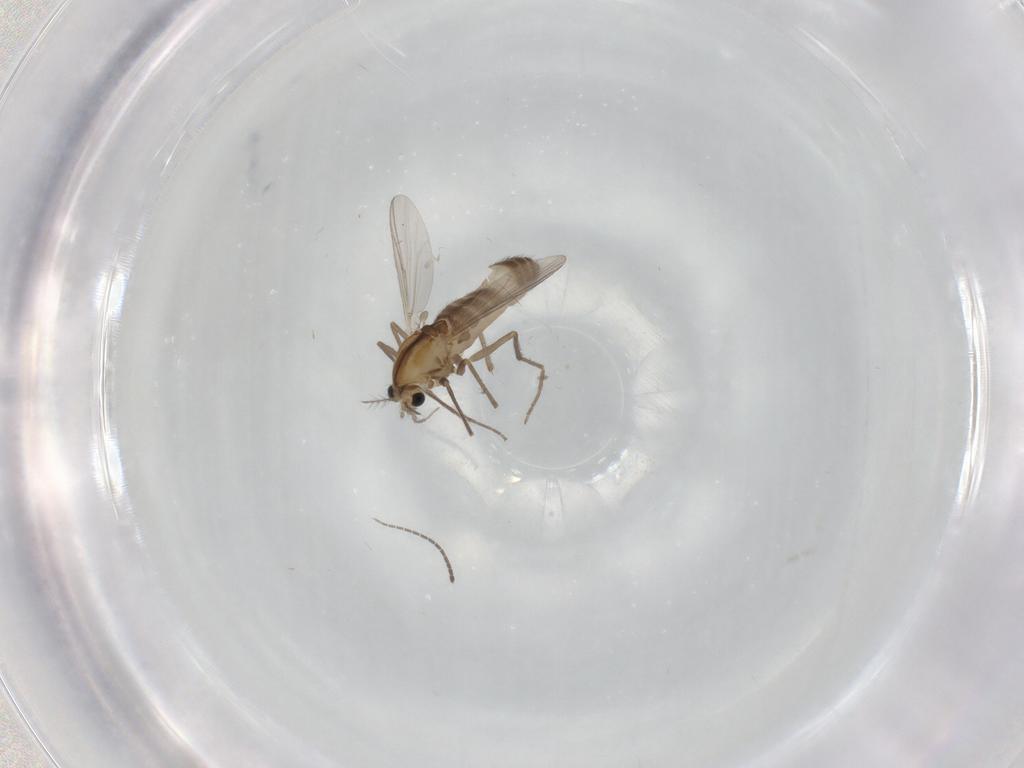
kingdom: Animalia
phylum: Arthropoda
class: Insecta
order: Diptera
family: Chironomidae
